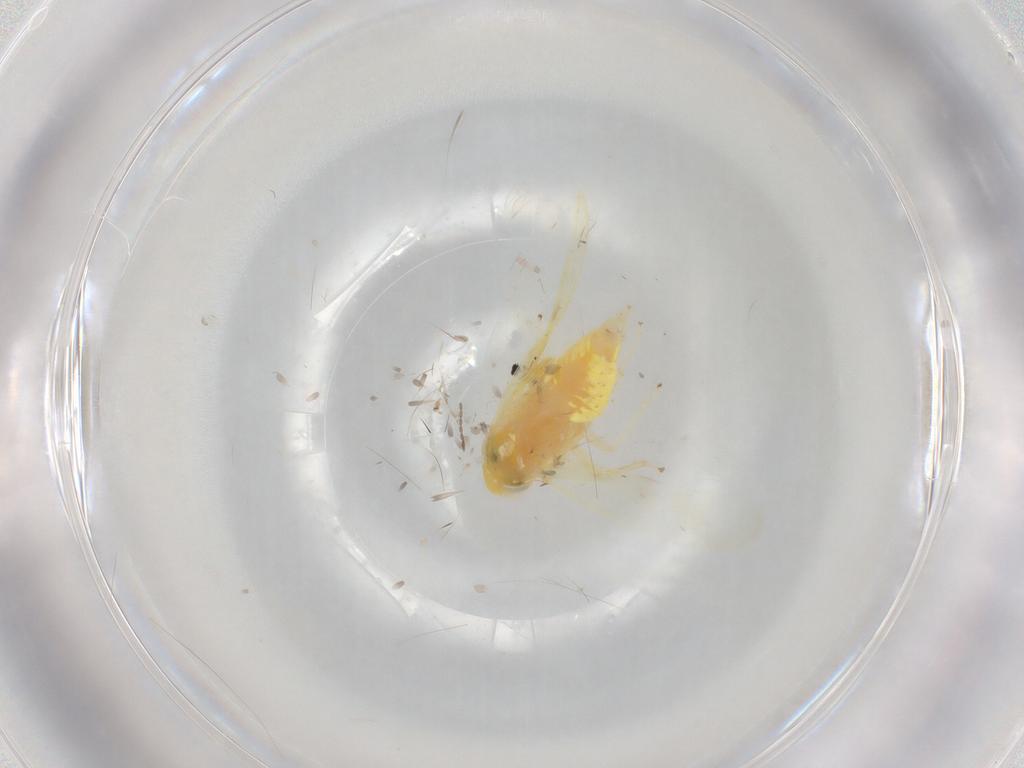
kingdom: Animalia
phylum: Arthropoda
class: Insecta
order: Hemiptera
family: Cicadellidae
